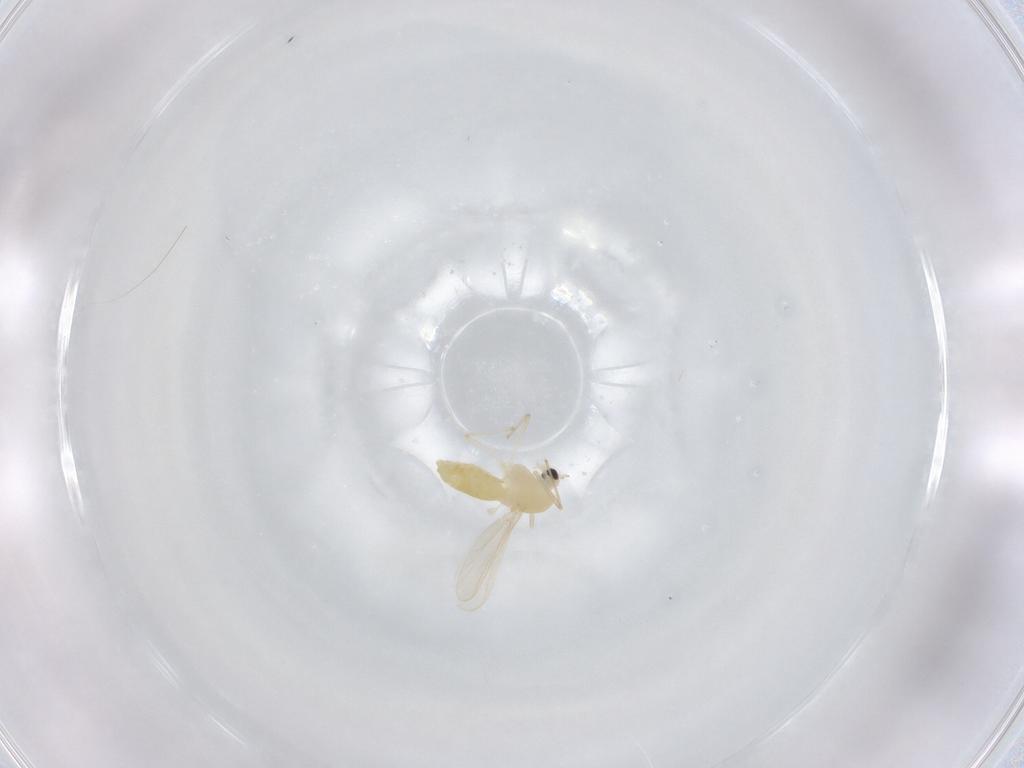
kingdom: Animalia
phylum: Arthropoda
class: Insecta
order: Diptera
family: Chironomidae
